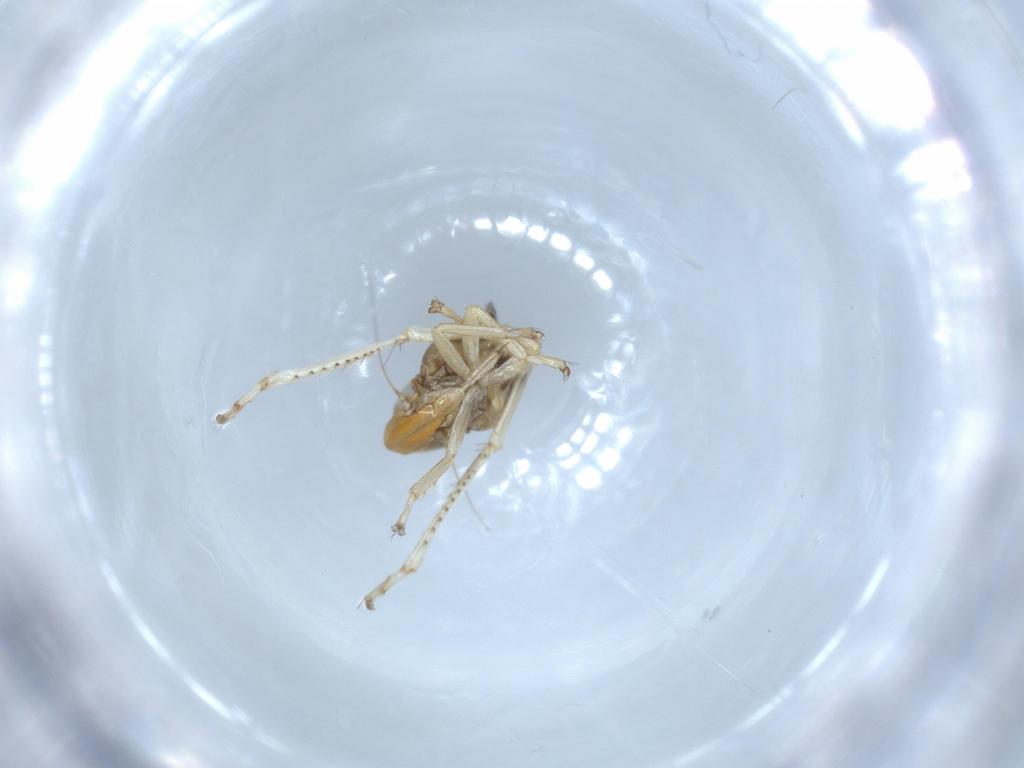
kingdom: Animalia
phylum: Arthropoda
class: Insecta
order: Hemiptera
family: Cicadellidae
